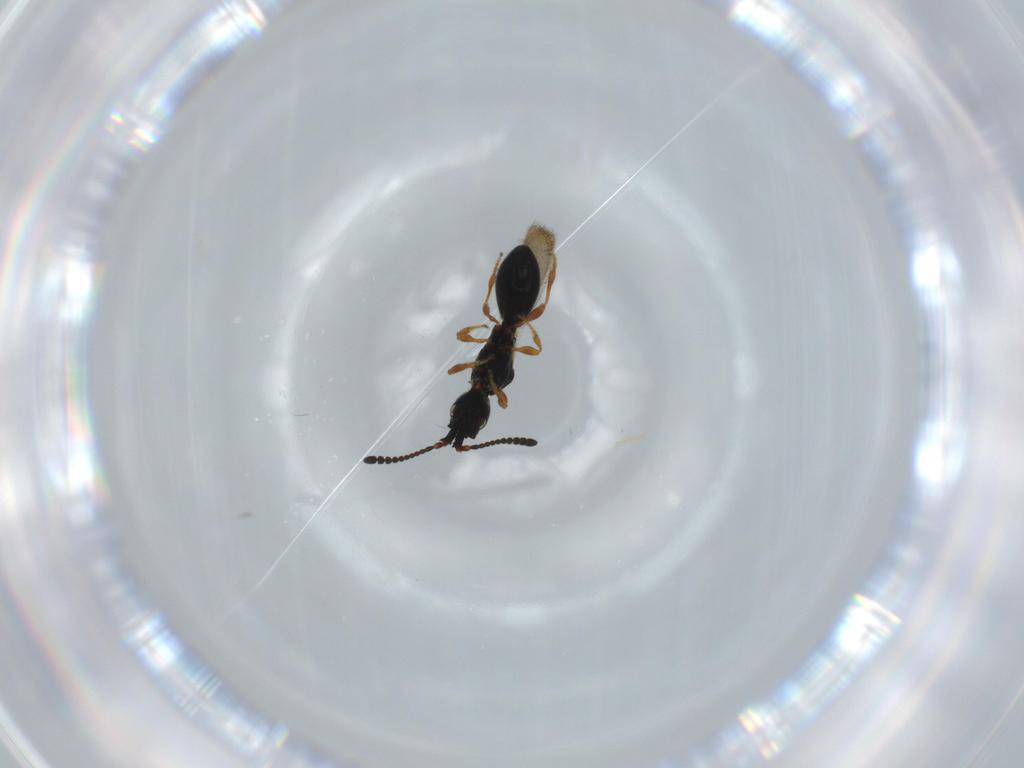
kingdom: Animalia
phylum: Arthropoda
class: Insecta
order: Hymenoptera
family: Diapriidae
